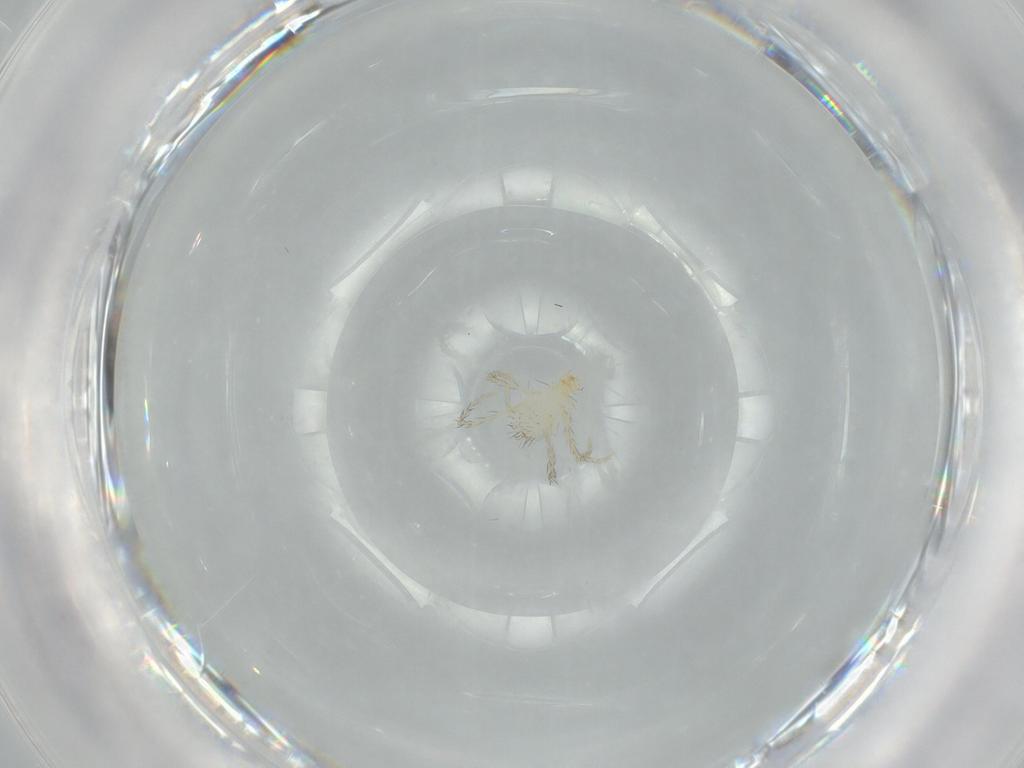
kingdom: Animalia
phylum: Arthropoda
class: Arachnida
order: Trombidiformes
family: Erythraeidae
